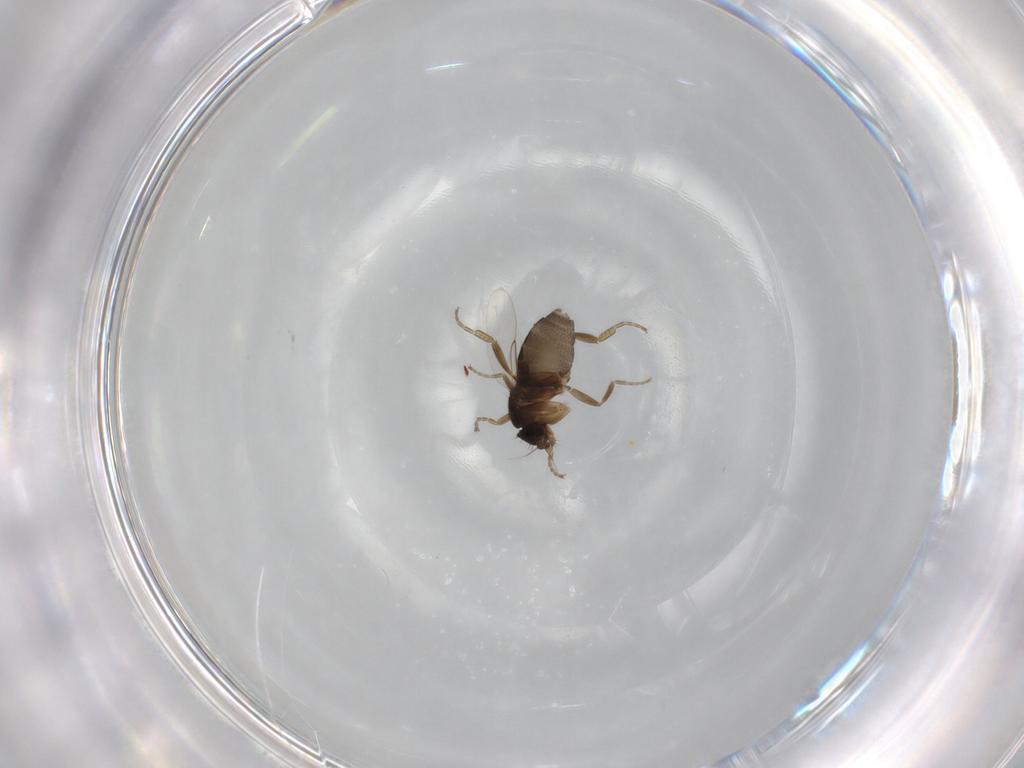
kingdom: Animalia
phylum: Arthropoda
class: Insecta
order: Diptera
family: Phoridae
